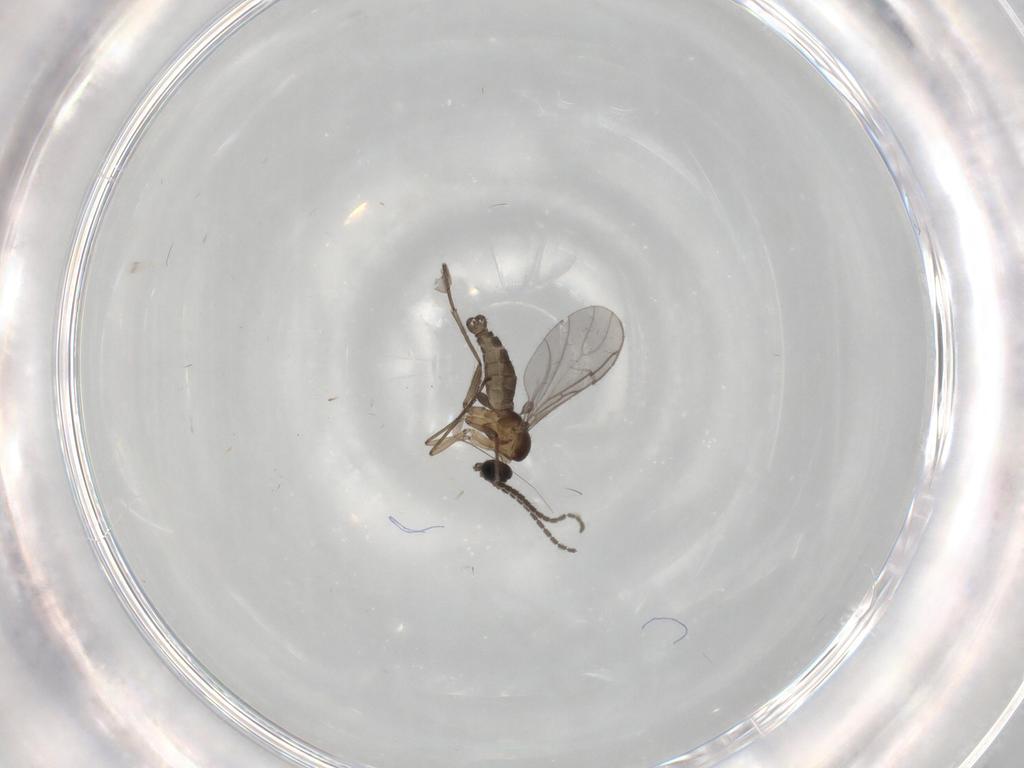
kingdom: Animalia
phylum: Arthropoda
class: Insecta
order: Diptera
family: Sciaridae
